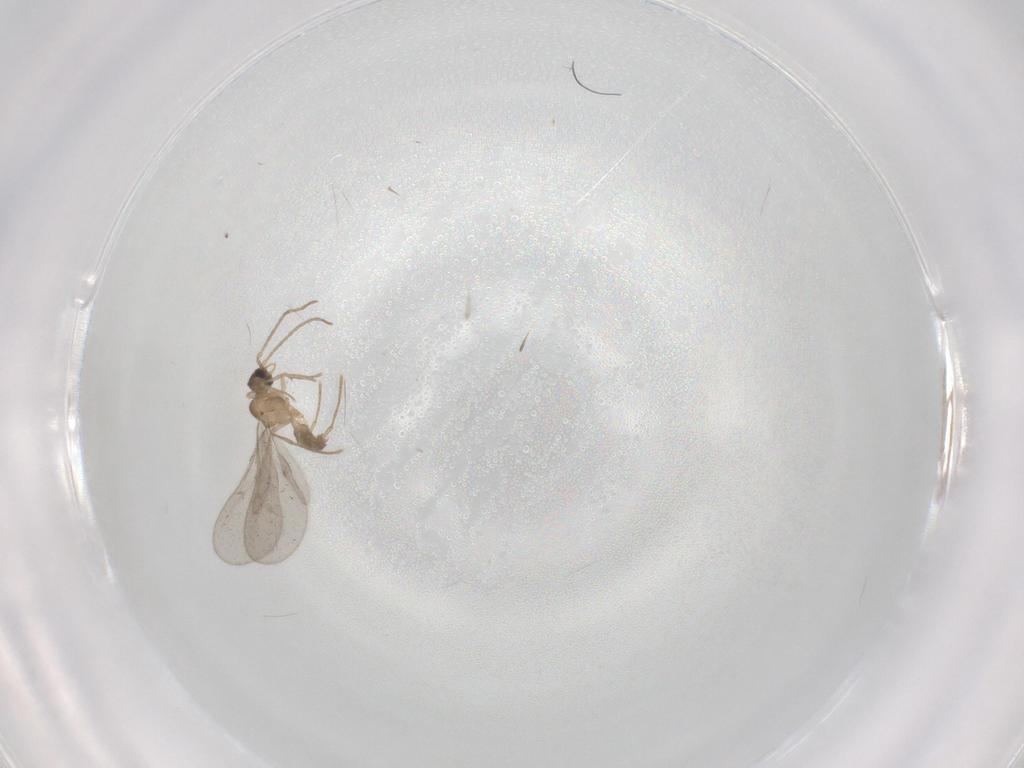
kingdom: Animalia
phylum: Arthropoda
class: Insecta
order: Hymenoptera
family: Formicidae
